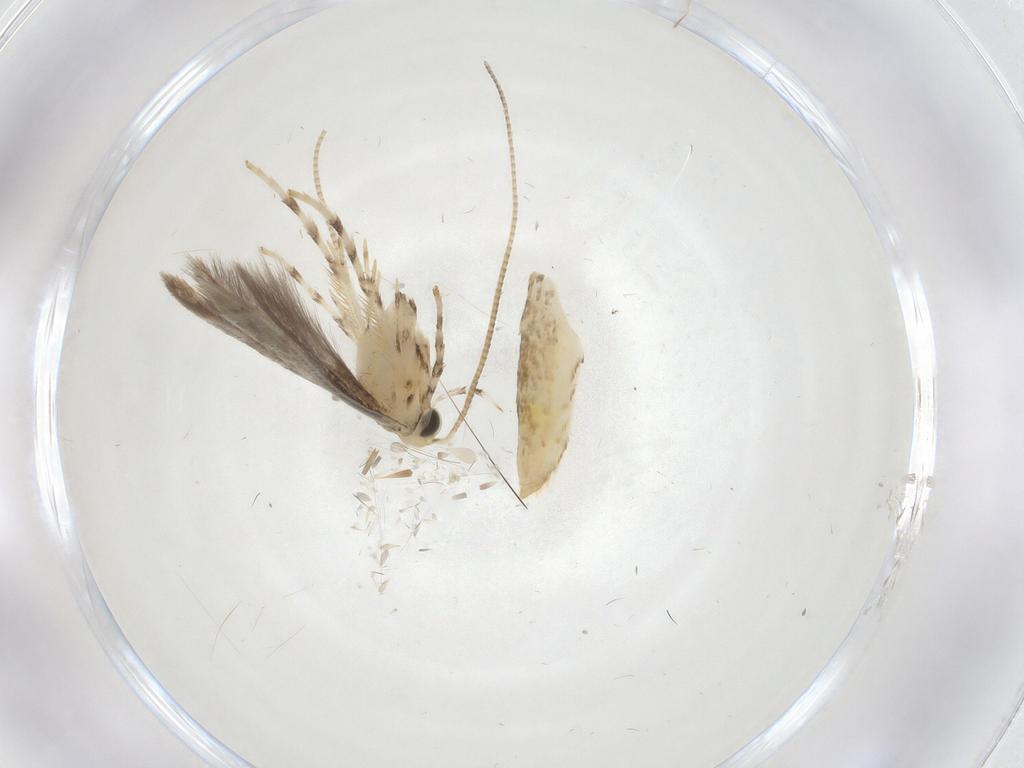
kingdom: Animalia
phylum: Arthropoda
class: Insecta
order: Lepidoptera
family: Gracillariidae
